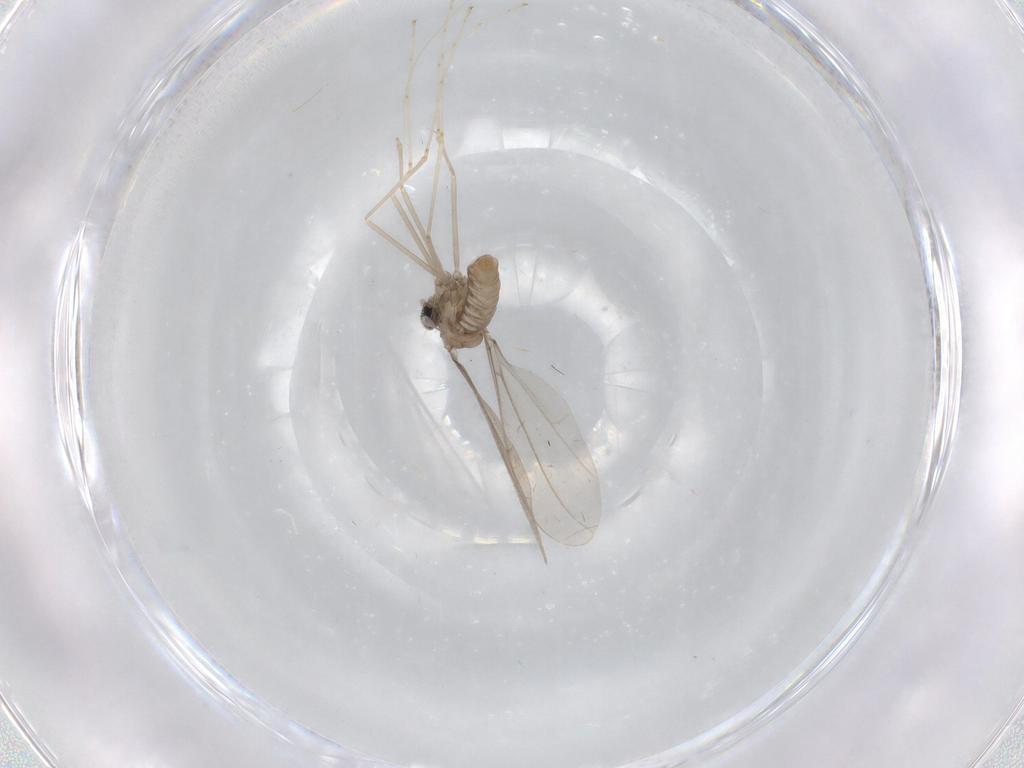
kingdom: Animalia
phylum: Arthropoda
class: Insecta
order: Diptera
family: Cecidomyiidae
